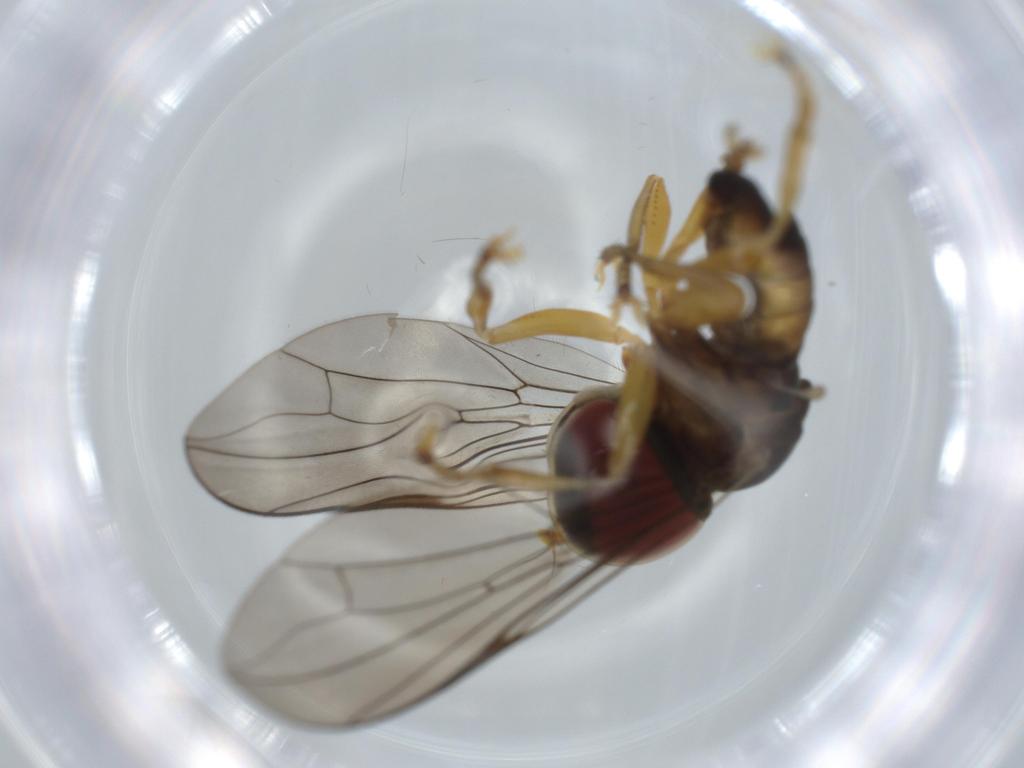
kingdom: Animalia
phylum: Arthropoda
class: Insecta
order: Diptera
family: Pipunculidae
